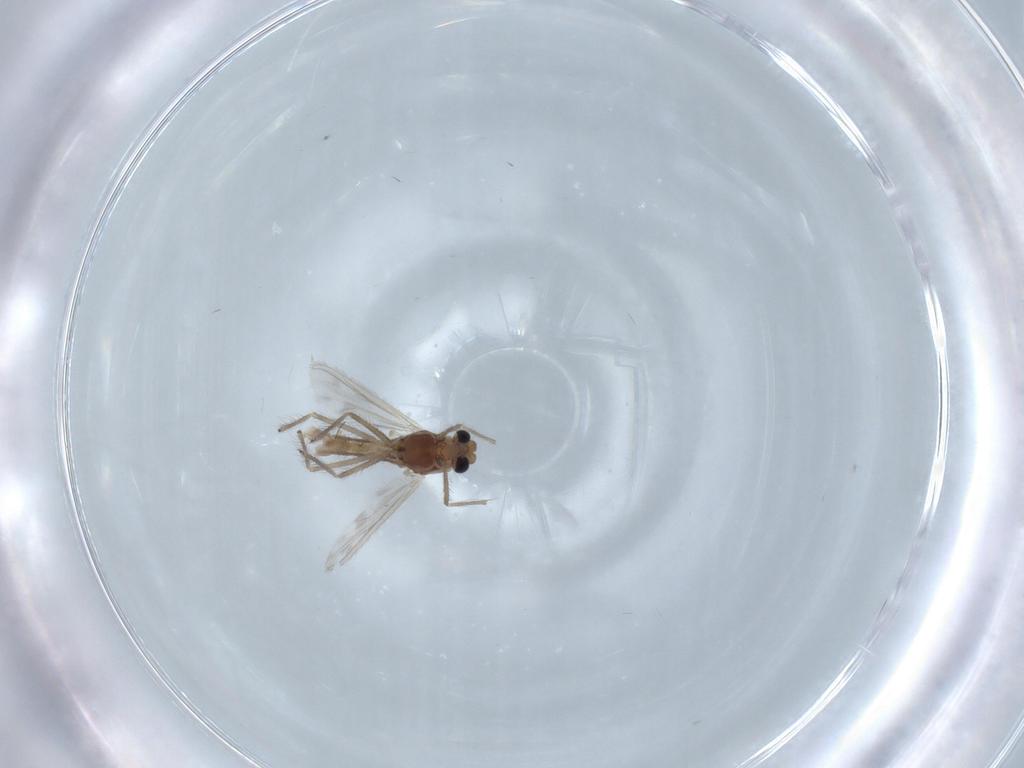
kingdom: Animalia
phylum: Arthropoda
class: Insecta
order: Diptera
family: Chironomidae
